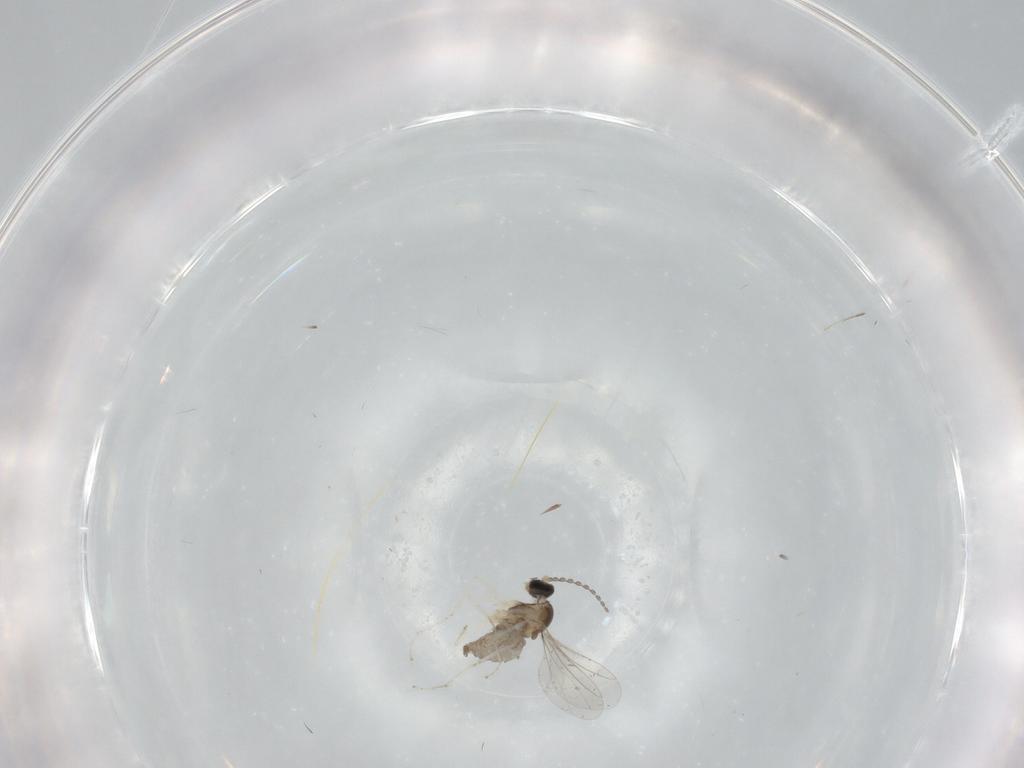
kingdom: Animalia
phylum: Arthropoda
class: Insecta
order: Diptera
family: Cecidomyiidae
